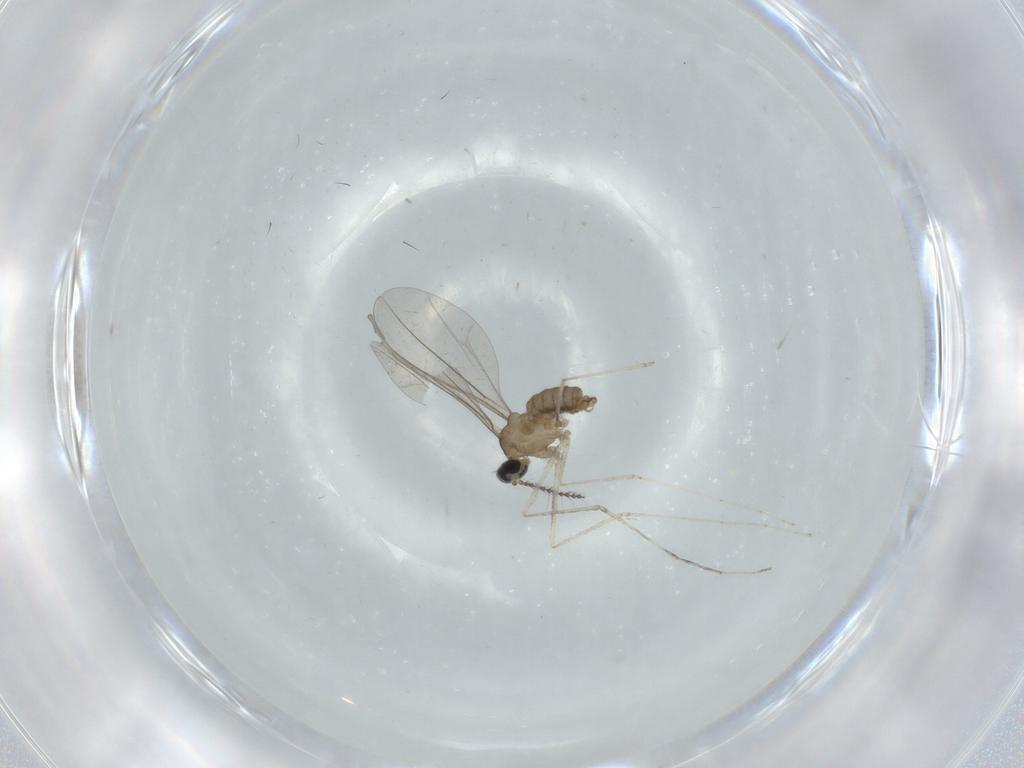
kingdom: Animalia
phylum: Arthropoda
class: Insecta
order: Diptera
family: Cecidomyiidae
